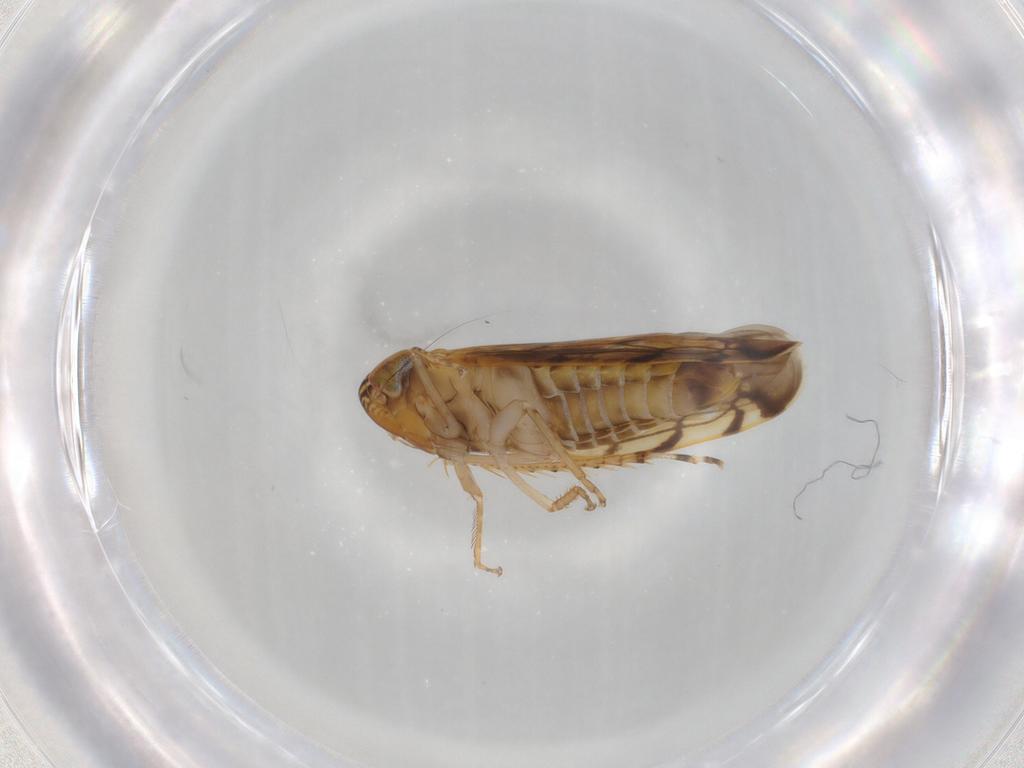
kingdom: Animalia
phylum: Arthropoda
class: Insecta
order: Hemiptera
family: Cicadellidae
